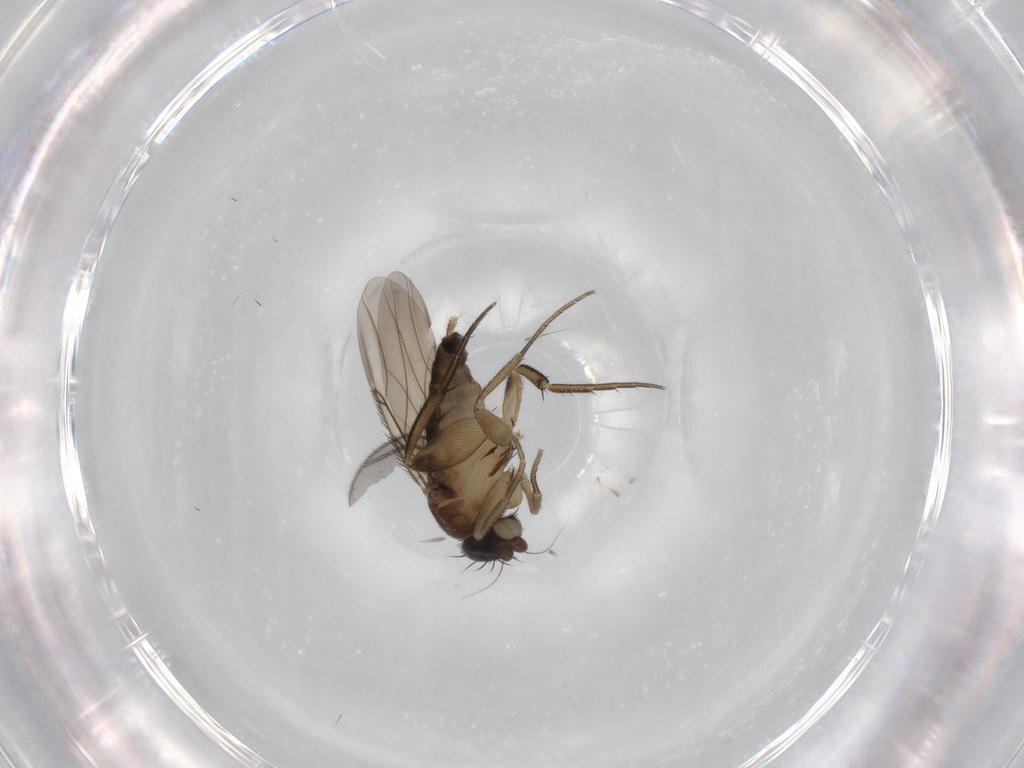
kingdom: Animalia
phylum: Arthropoda
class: Insecta
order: Diptera
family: Phoridae
